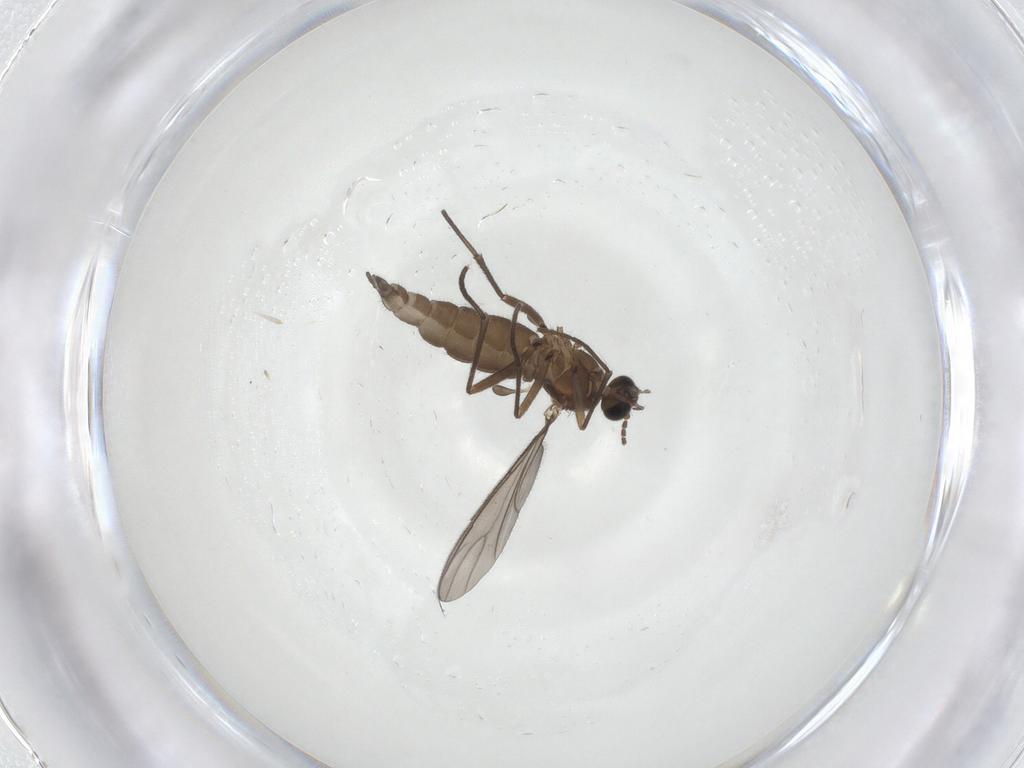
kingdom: Animalia
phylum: Arthropoda
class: Insecta
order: Diptera
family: Sciaridae
